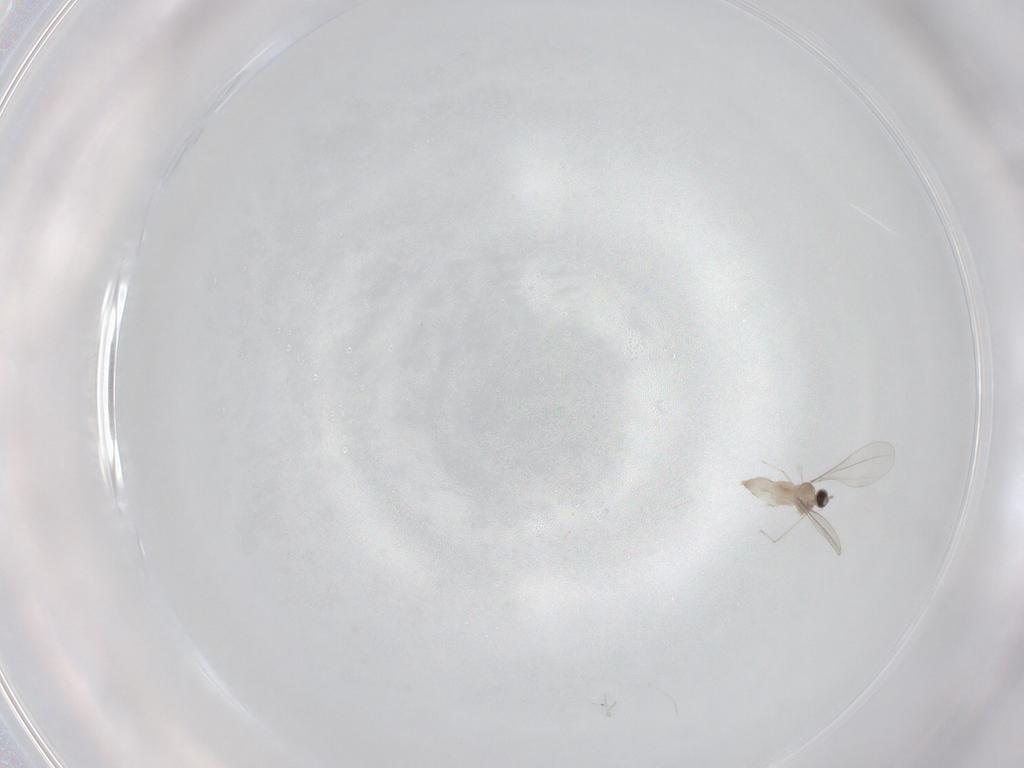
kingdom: Animalia
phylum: Arthropoda
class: Insecta
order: Diptera
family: Cecidomyiidae
